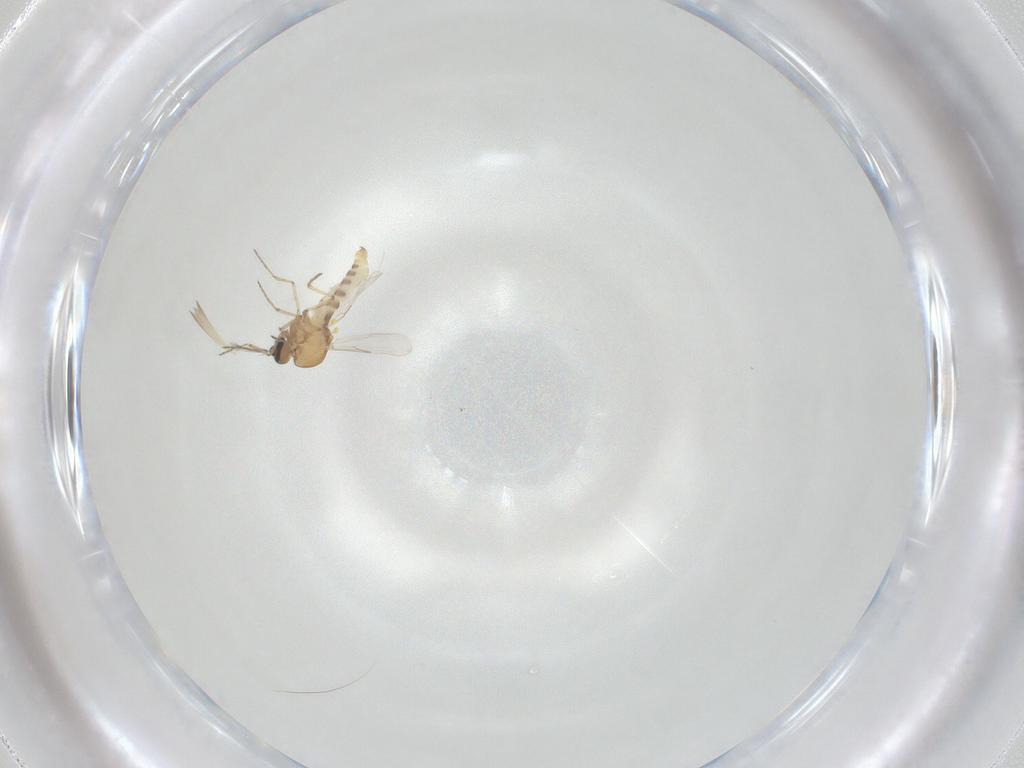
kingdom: Animalia
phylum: Arthropoda
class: Insecta
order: Diptera
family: Ceratopogonidae
